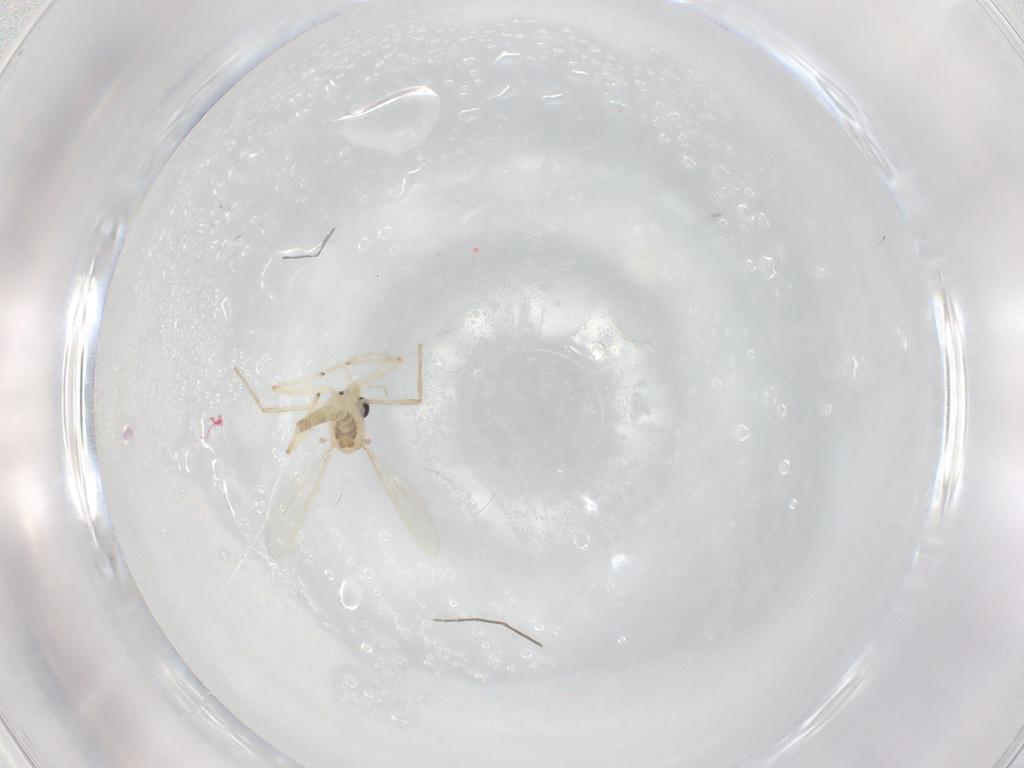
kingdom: Animalia
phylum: Arthropoda
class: Insecta
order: Diptera
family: Chironomidae
